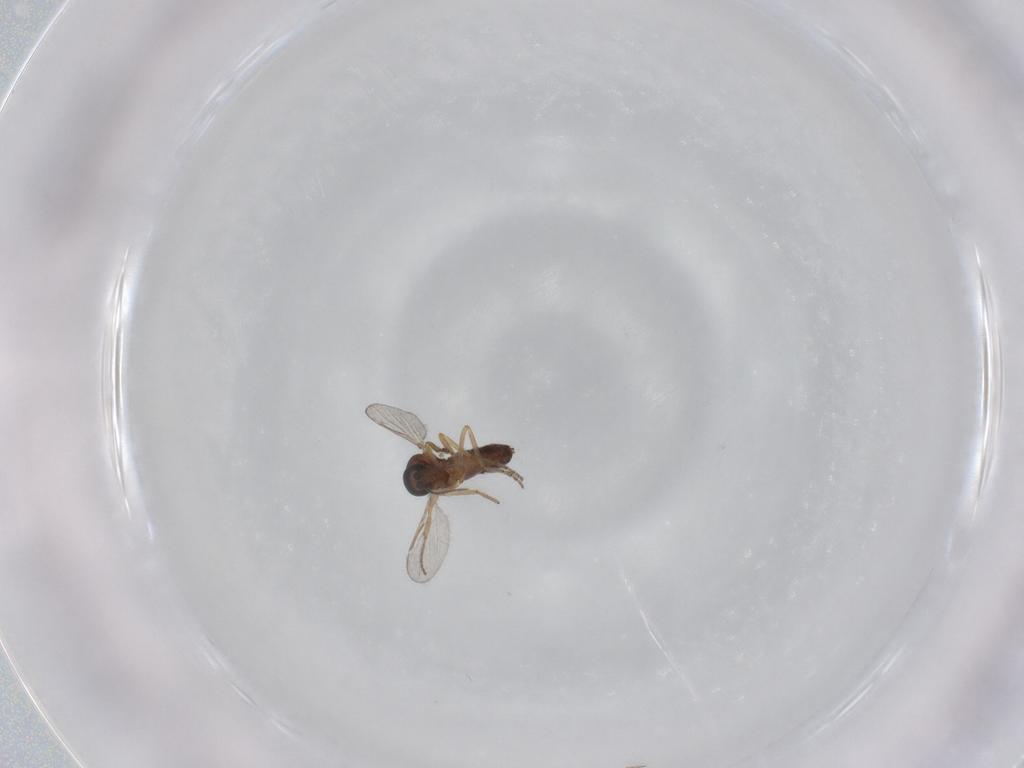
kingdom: Animalia
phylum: Arthropoda
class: Insecta
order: Diptera
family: Ceratopogonidae
